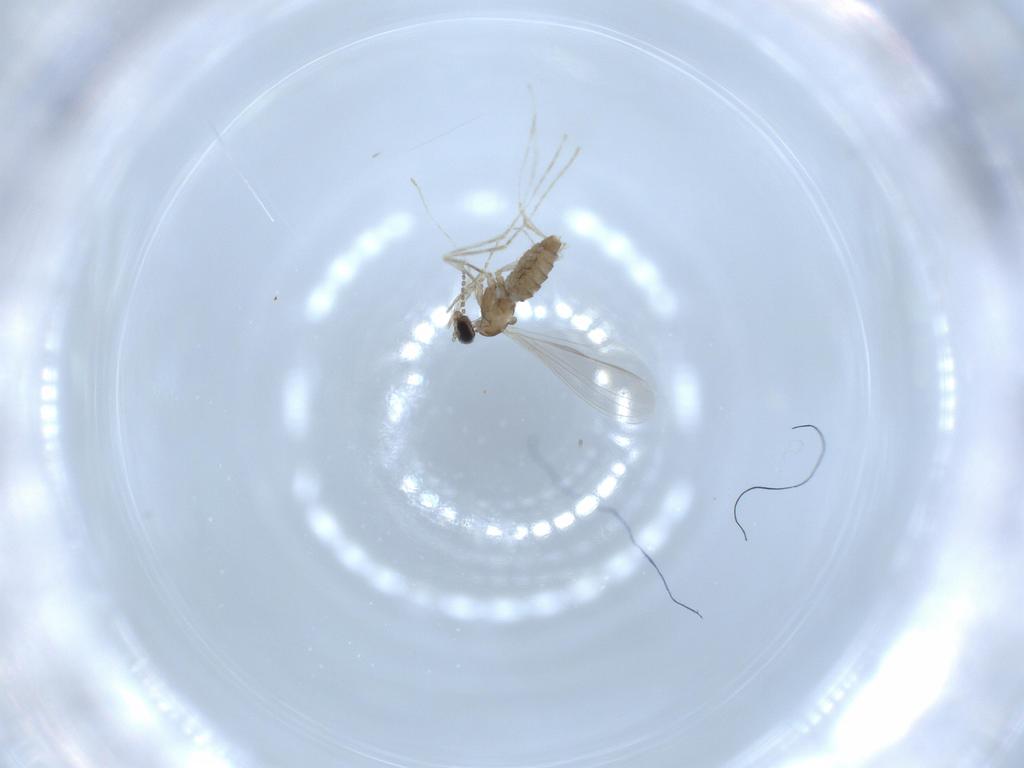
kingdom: Animalia
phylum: Arthropoda
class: Insecta
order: Diptera
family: Cecidomyiidae
